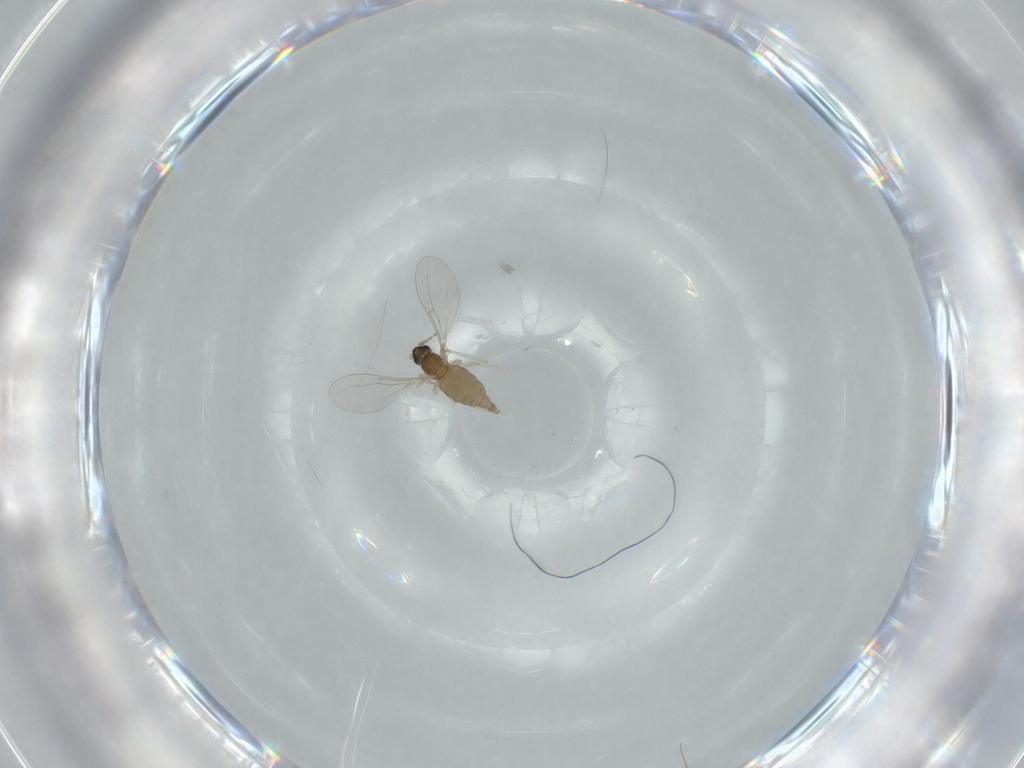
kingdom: Animalia
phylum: Arthropoda
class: Insecta
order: Diptera
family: Cecidomyiidae
